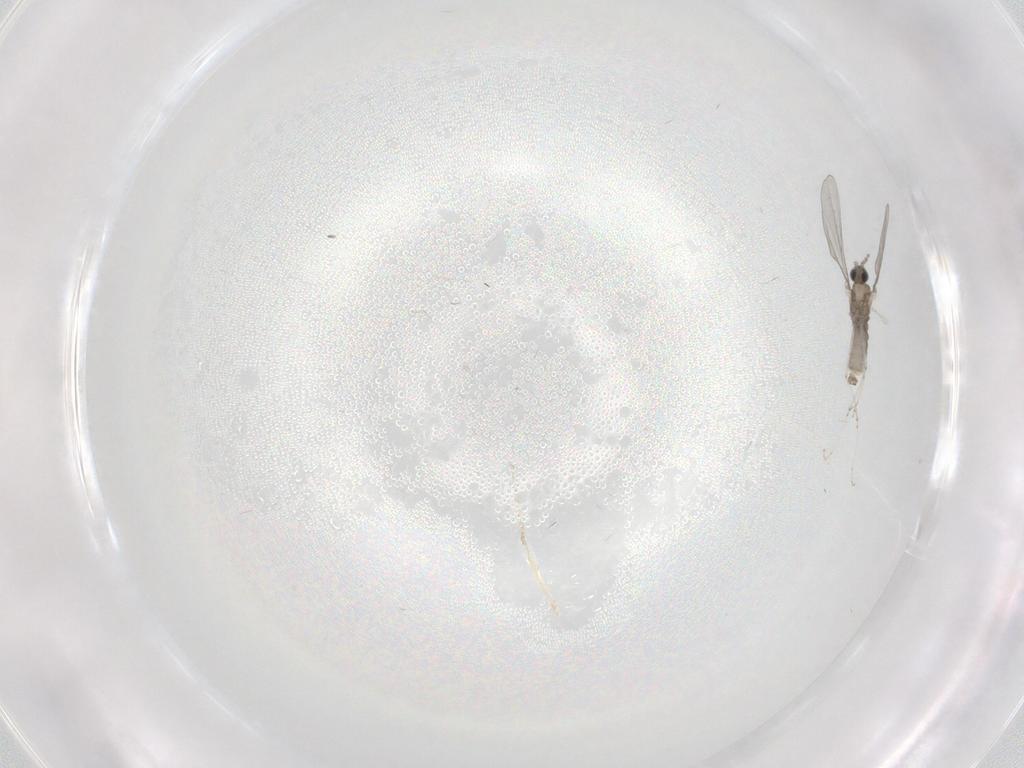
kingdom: Animalia
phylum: Arthropoda
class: Insecta
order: Diptera
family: Cecidomyiidae
